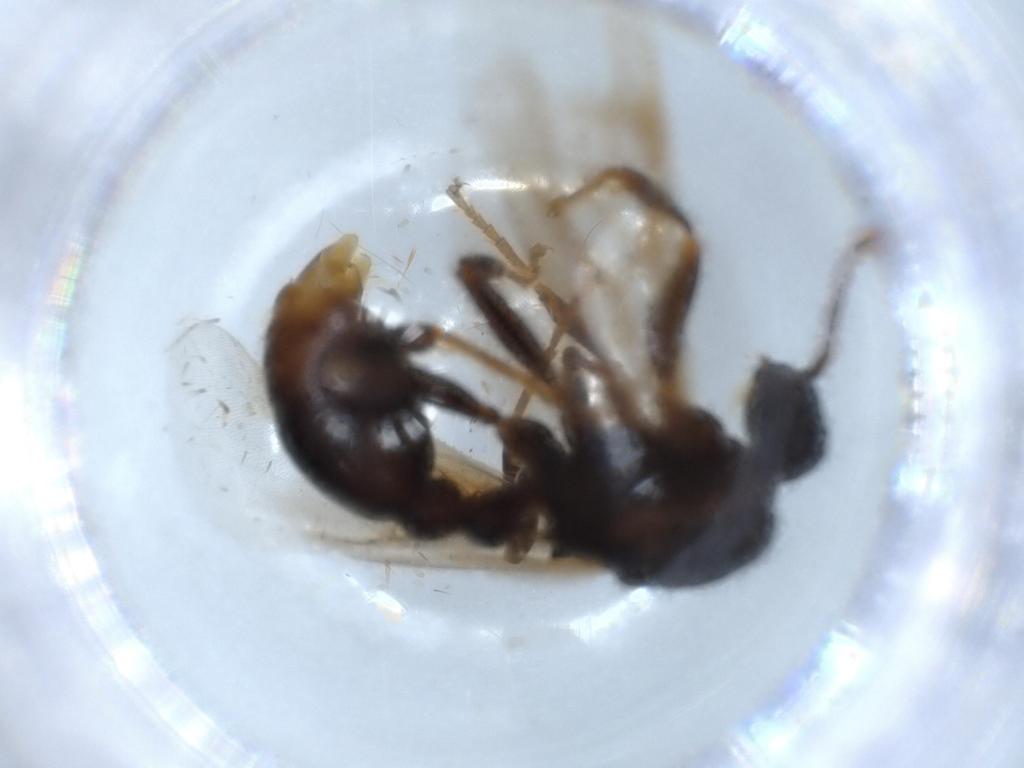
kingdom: Animalia
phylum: Arthropoda
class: Insecta
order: Hymenoptera
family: Formicidae
